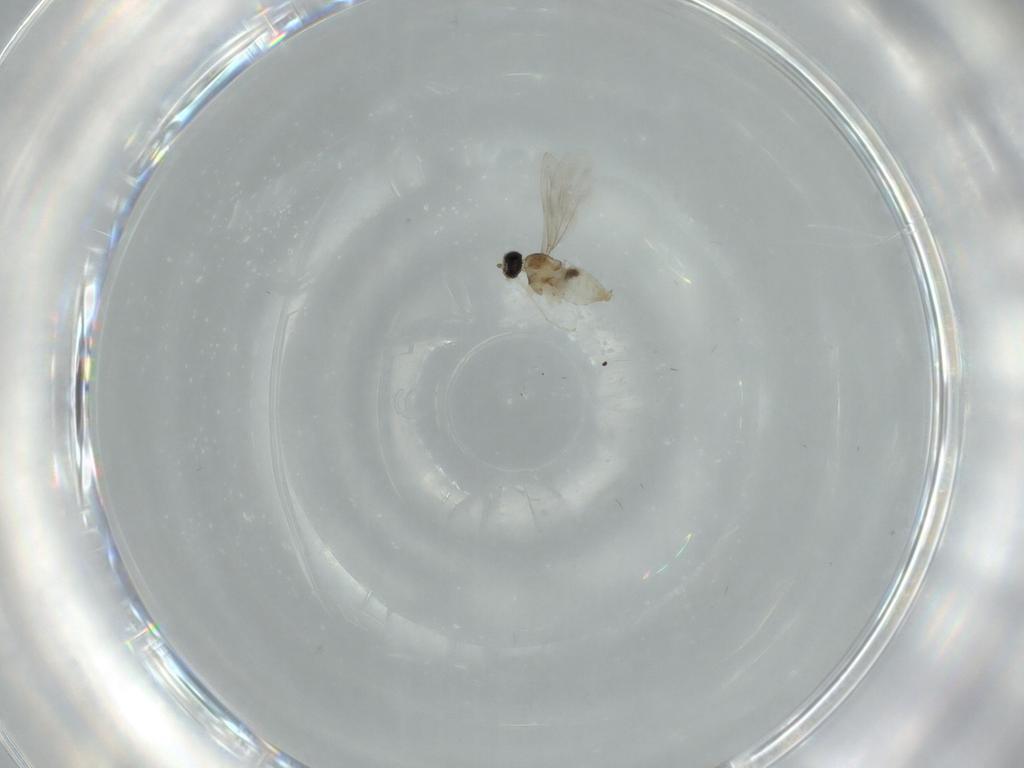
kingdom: Animalia
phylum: Arthropoda
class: Insecta
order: Diptera
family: Cecidomyiidae
